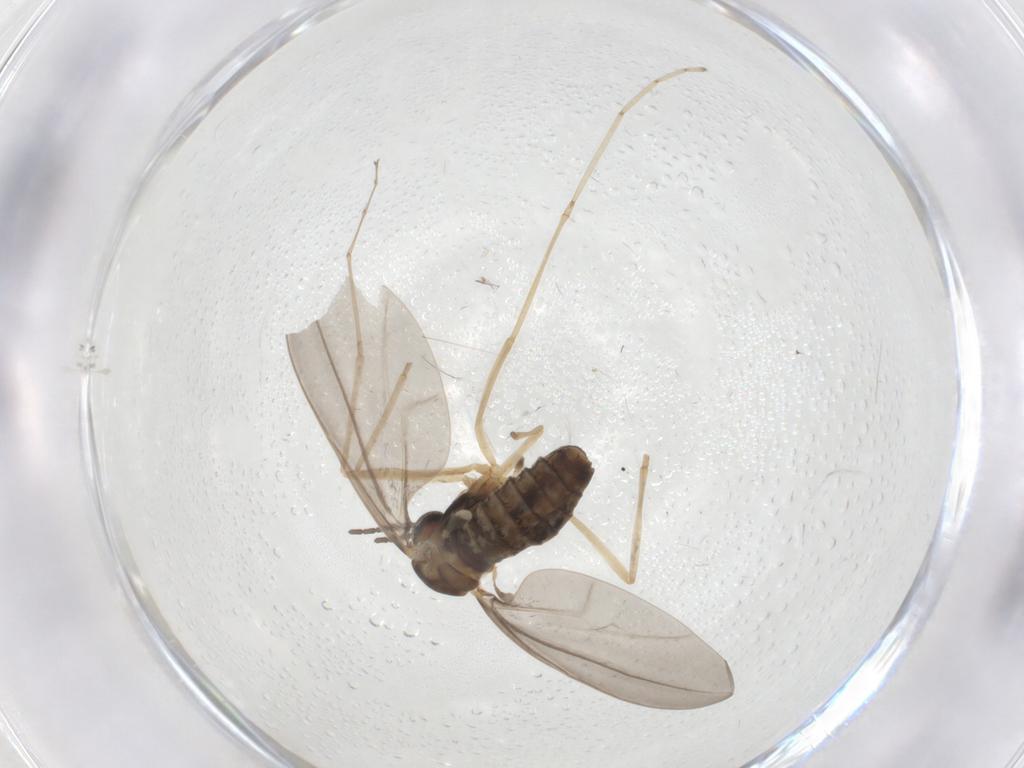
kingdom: Animalia
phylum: Arthropoda
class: Insecta
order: Diptera
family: Cecidomyiidae
